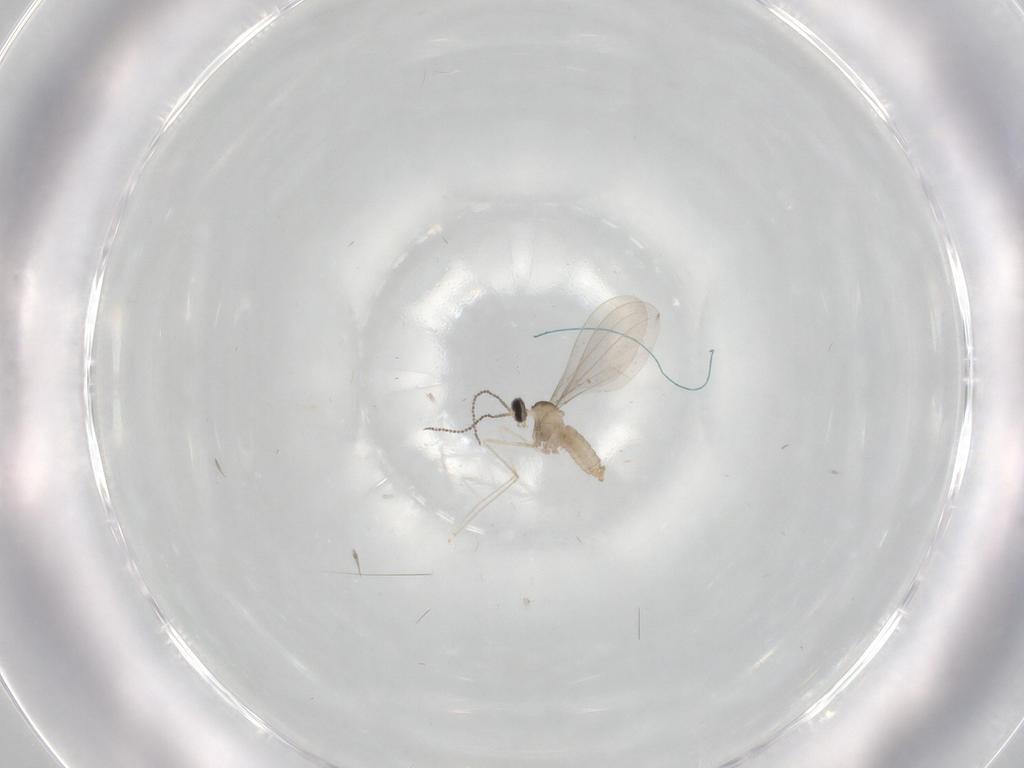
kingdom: Animalia
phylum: Arthropoda
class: Insecta
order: Diptera
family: Cecidomyiidae
